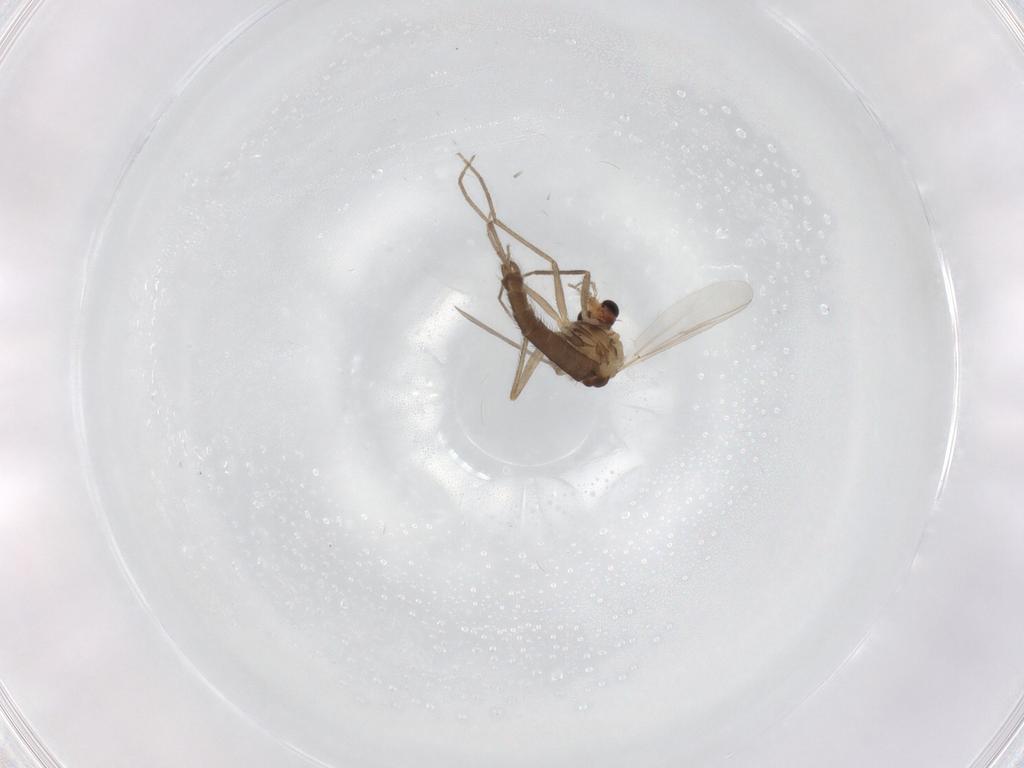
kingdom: Animalia
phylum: Arthropoda
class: Insecta
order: Diptera
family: Chironomidae
